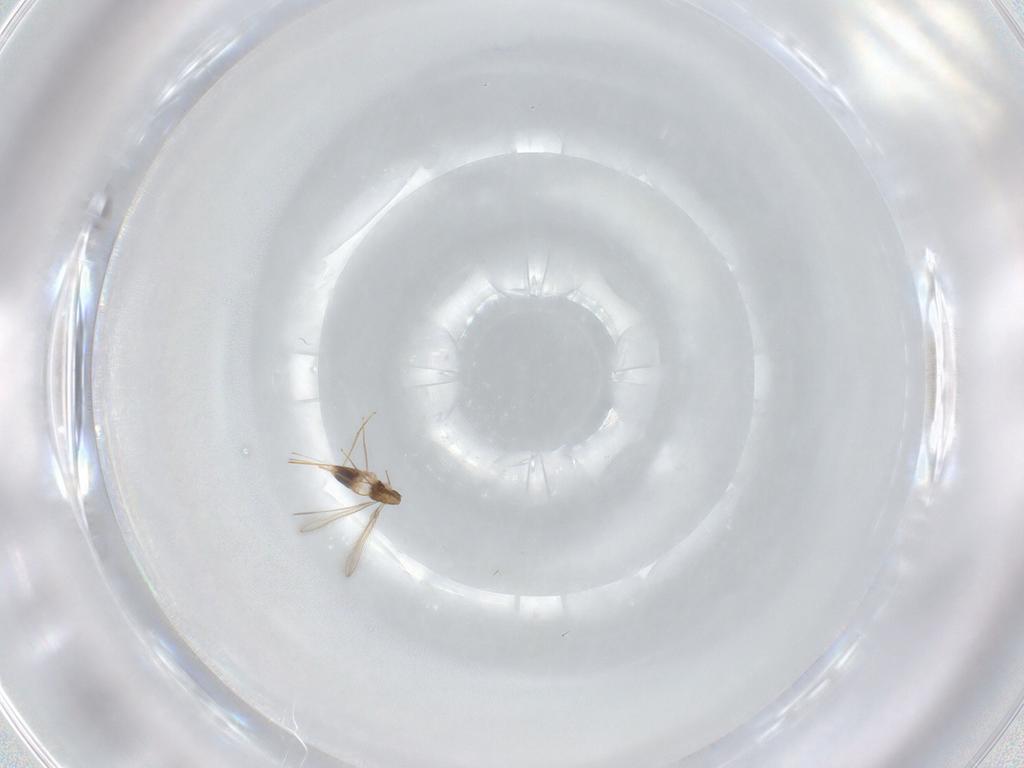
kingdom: Animalia
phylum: Arthropoda
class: Insecta
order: Hymenoptera
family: Mymaridae
